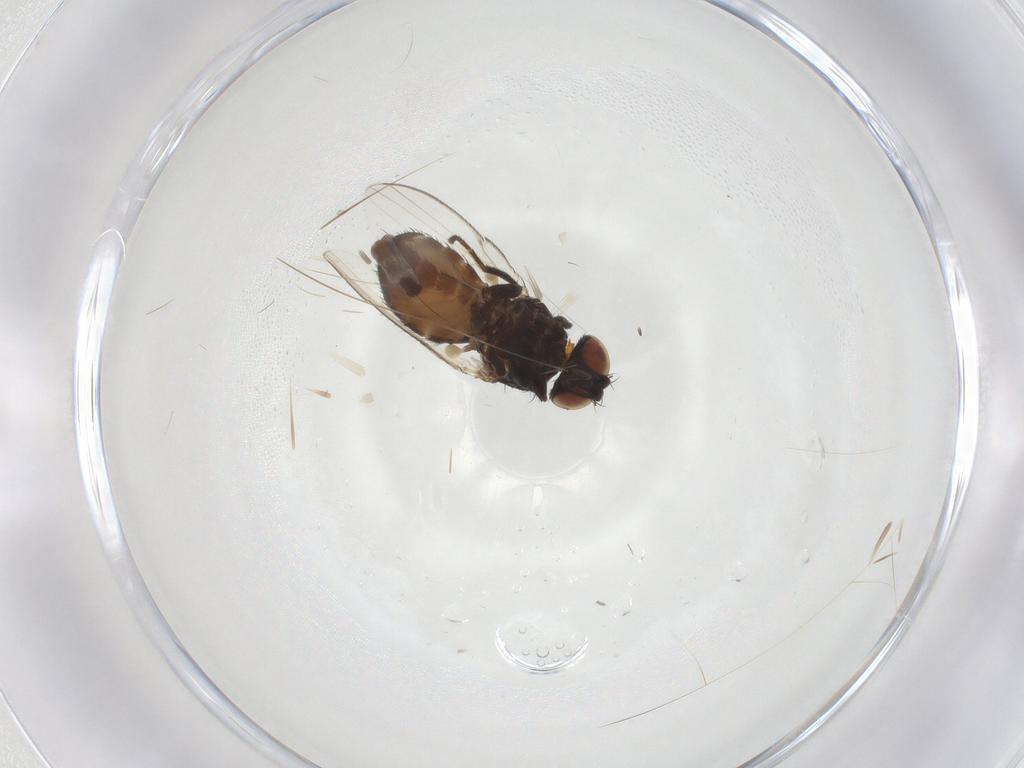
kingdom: Animalia
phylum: Arthropoda
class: Insecta
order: Diptera
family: Milichiidae
